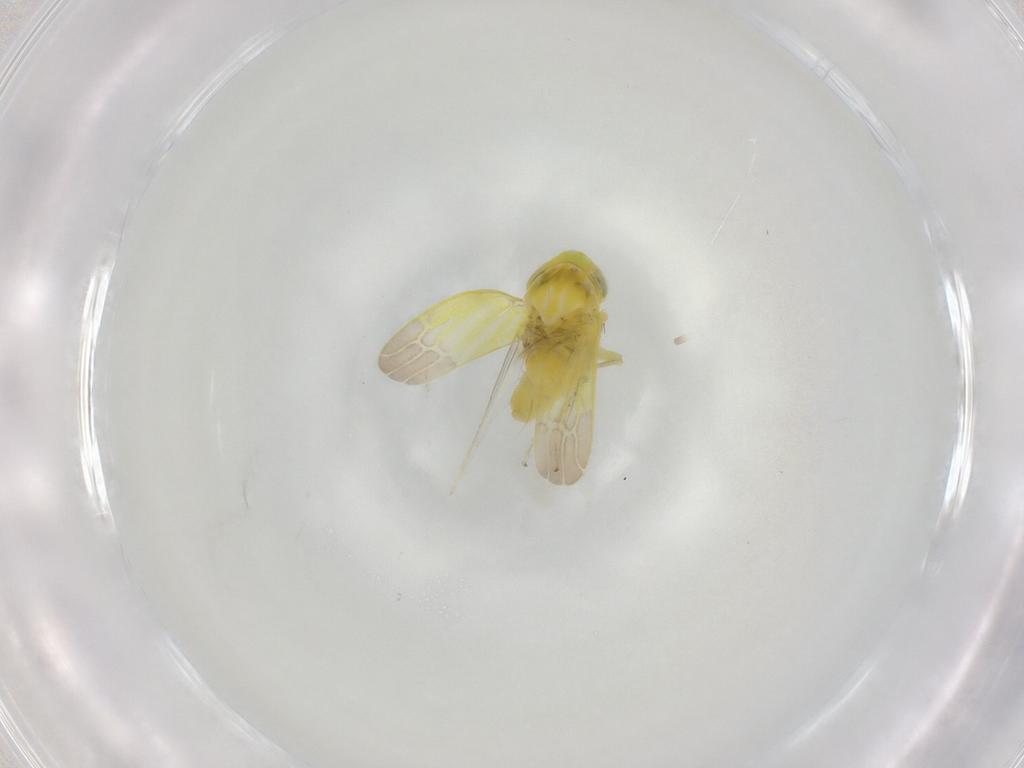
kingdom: Animalia
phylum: Arthropoda
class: Insecta
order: Hemiptera
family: Cicadellidae
